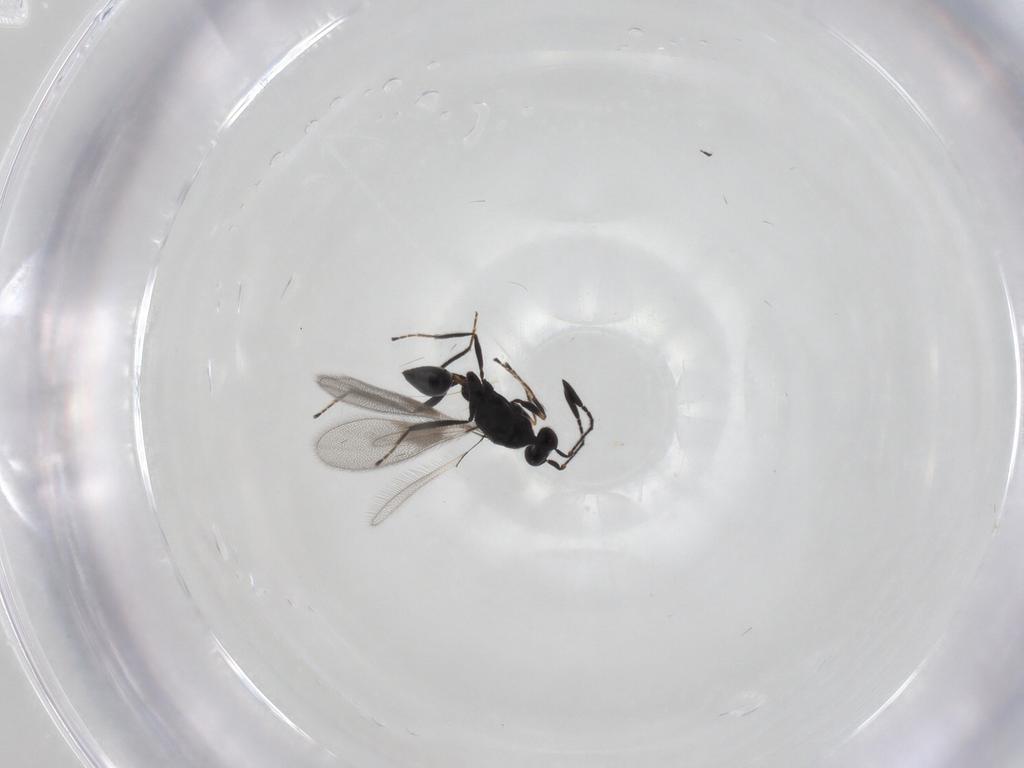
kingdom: Animalia
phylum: Arthropoda
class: Insecta
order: Hymenoptera
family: Mymaridae
